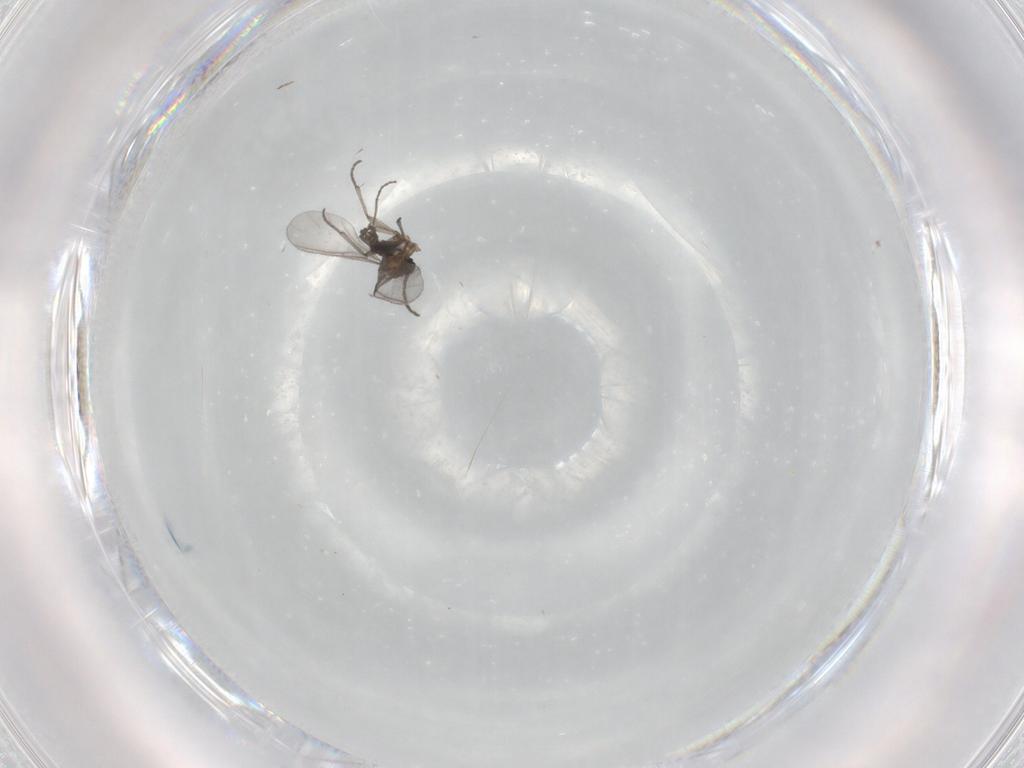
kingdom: Animalia
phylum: Arthropoda
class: Insecta
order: Diptera
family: Sciaridae
